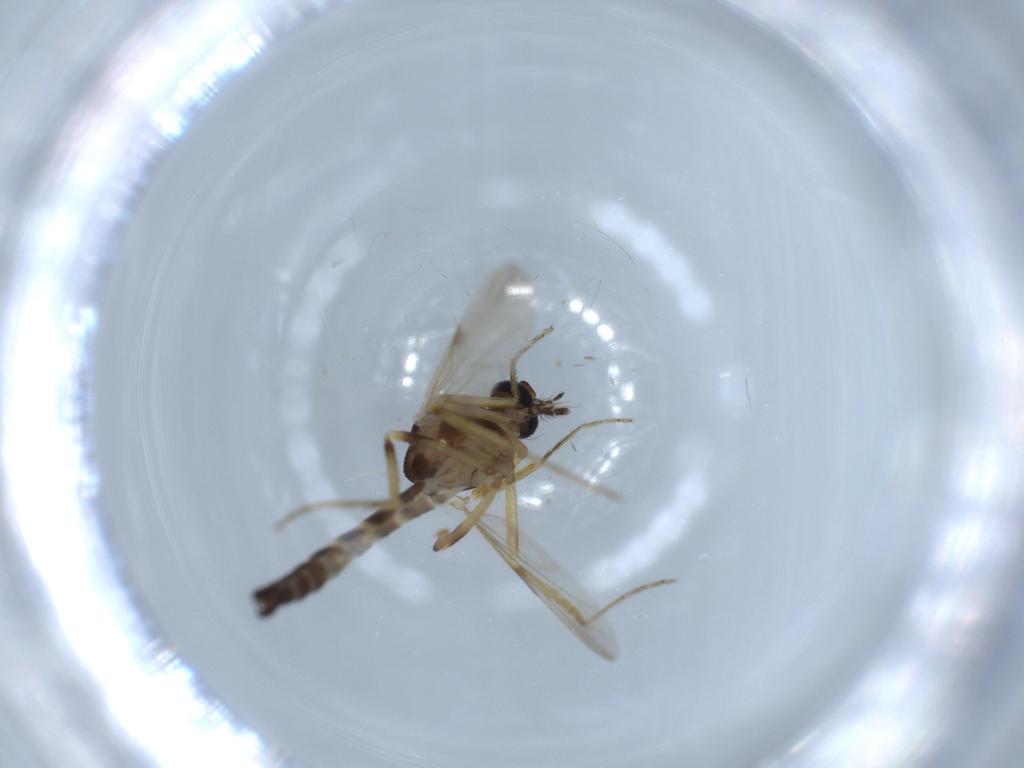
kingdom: Animalia
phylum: Arthropoda
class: Insecta
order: Diptera
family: Ceratopogonidae
